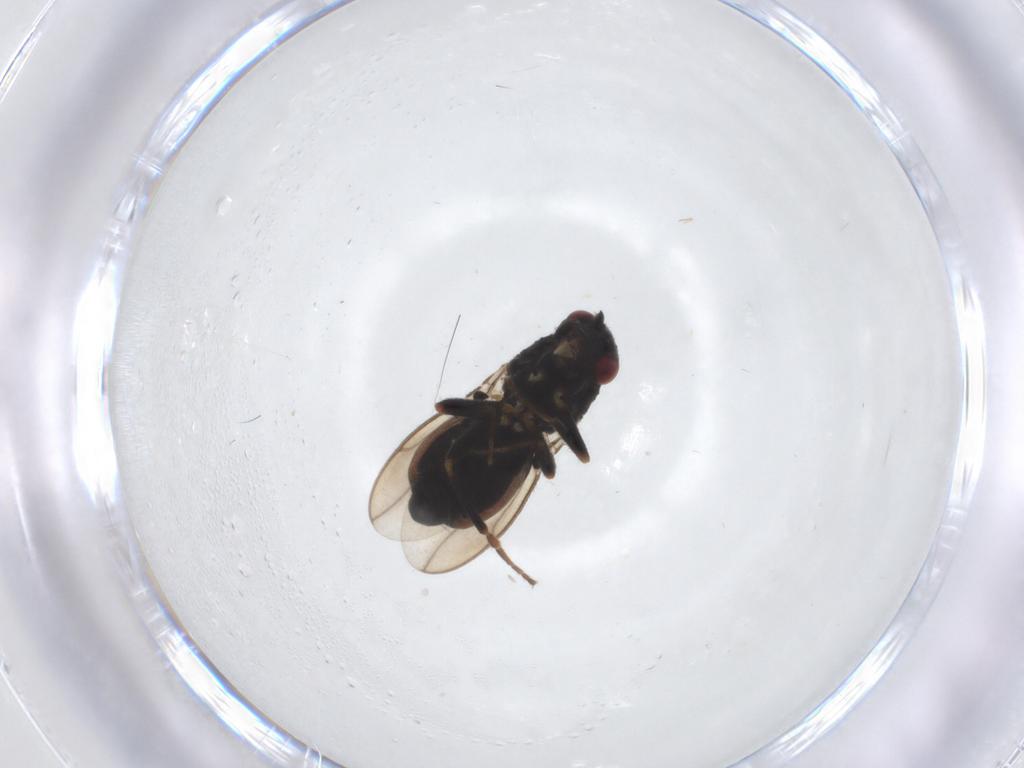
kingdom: Animalia
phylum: Arthropoda
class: Insecta
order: Diptera
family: Sphaeroceridae
